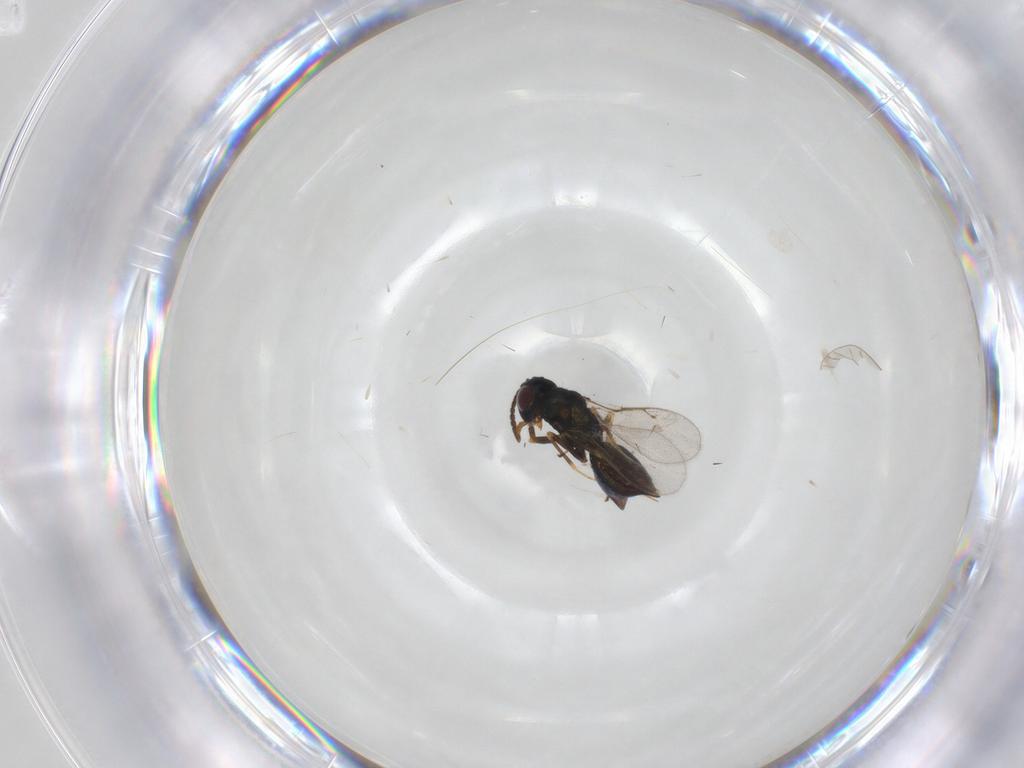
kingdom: Animalia
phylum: Arthropoda
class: Insecta
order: Hymenoptera
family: Pteromalidae
